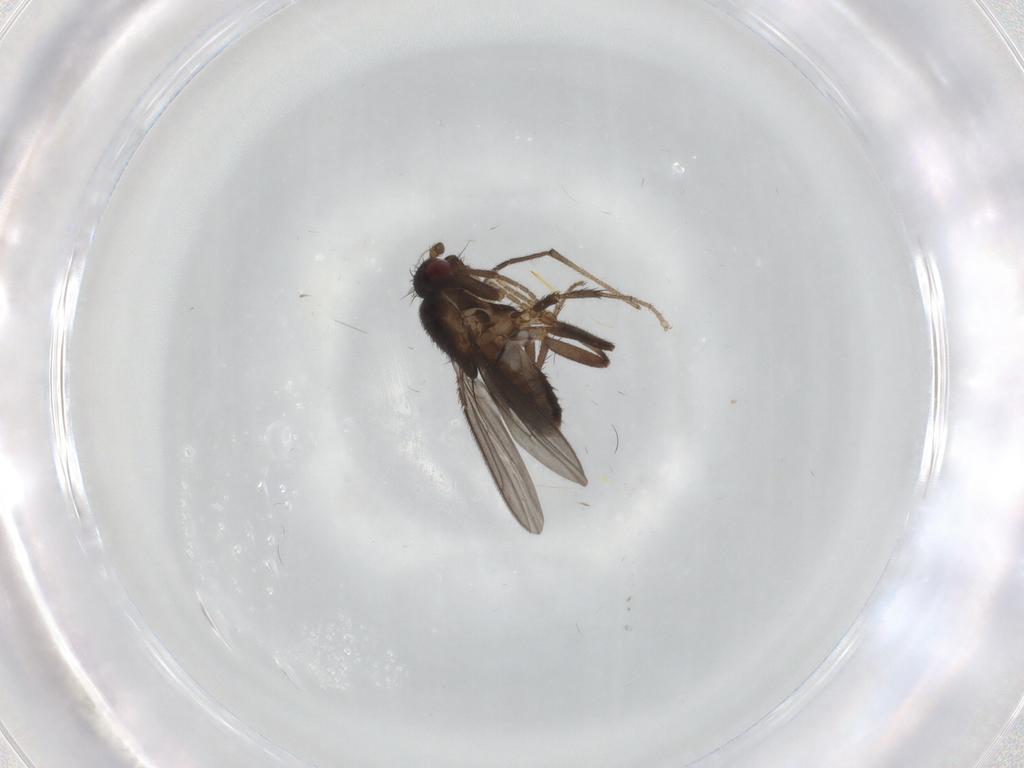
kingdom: Animalia
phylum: Arthropoda
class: Insecta
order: Diptera
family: Sphaeroceridae
